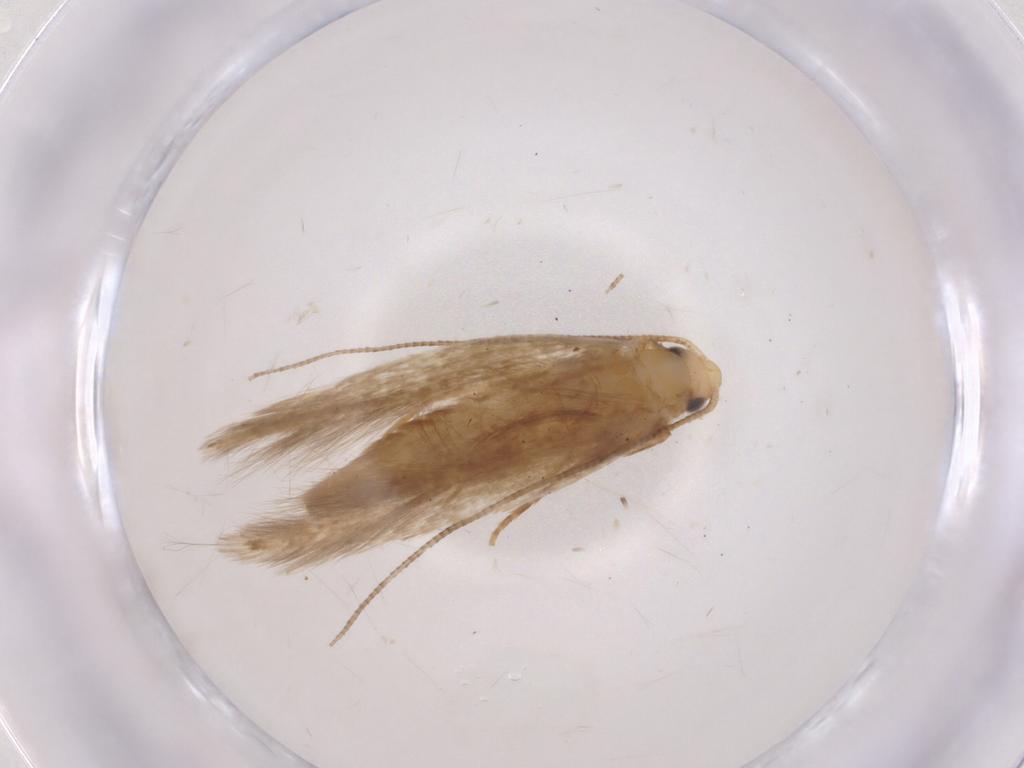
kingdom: Animalia
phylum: Arthropoda
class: Insecta
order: Lepidoptera
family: Tineidae
